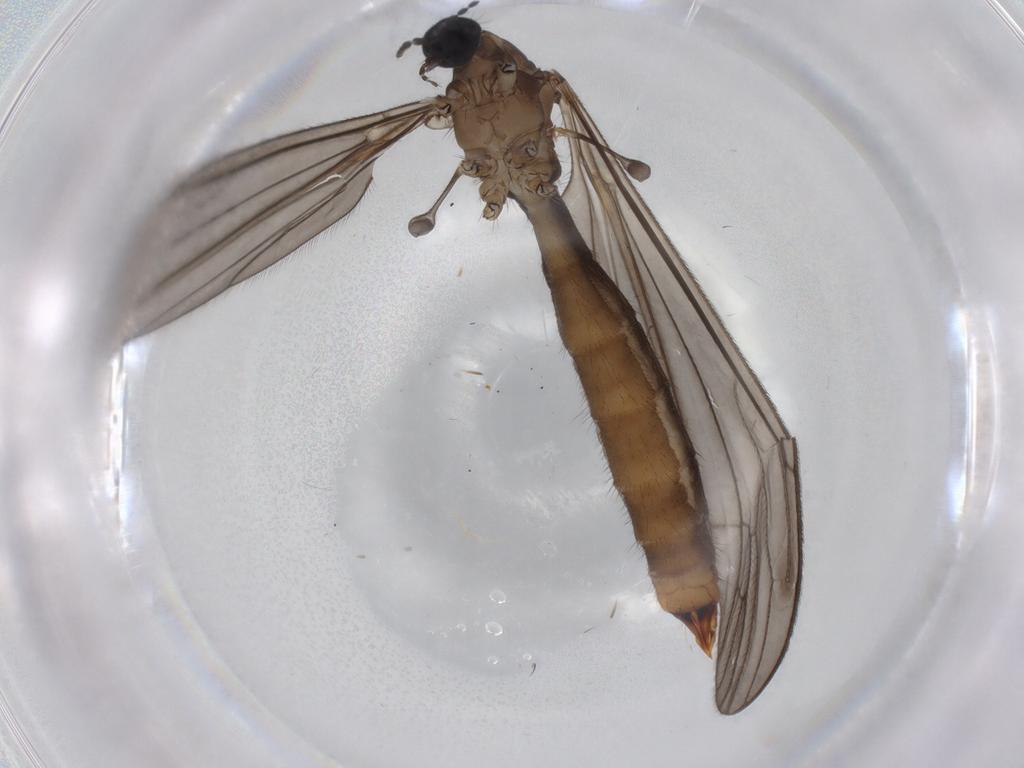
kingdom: Animalia
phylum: Arthropoda
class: Insecta
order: Diptera
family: Limoniidae
